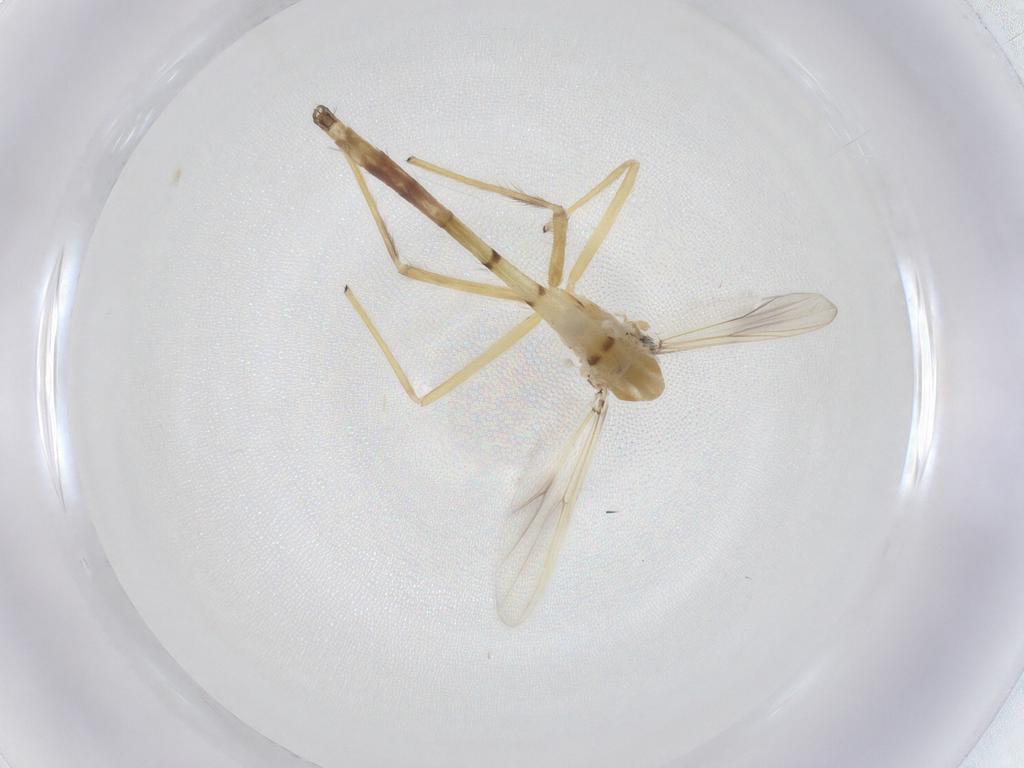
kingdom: Animalia
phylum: Arthropoda
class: Insecta
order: Diptera
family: Chironomidae
